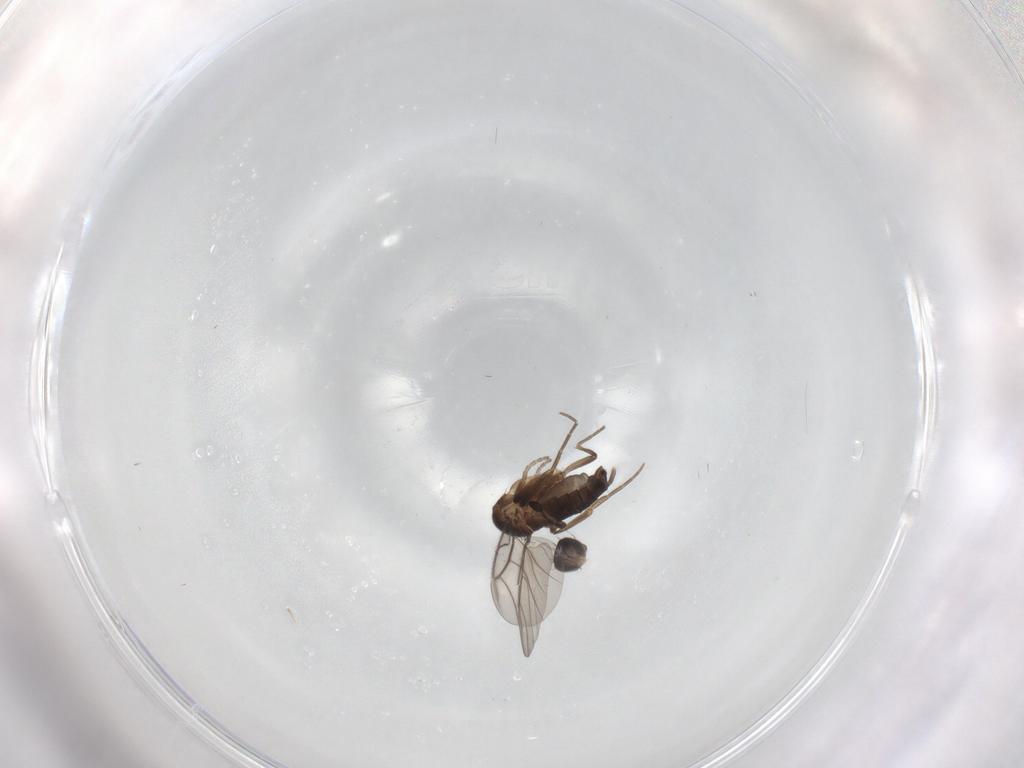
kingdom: Animalia
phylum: Arthropoda
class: Insecta
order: Diptera
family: Phoridae
